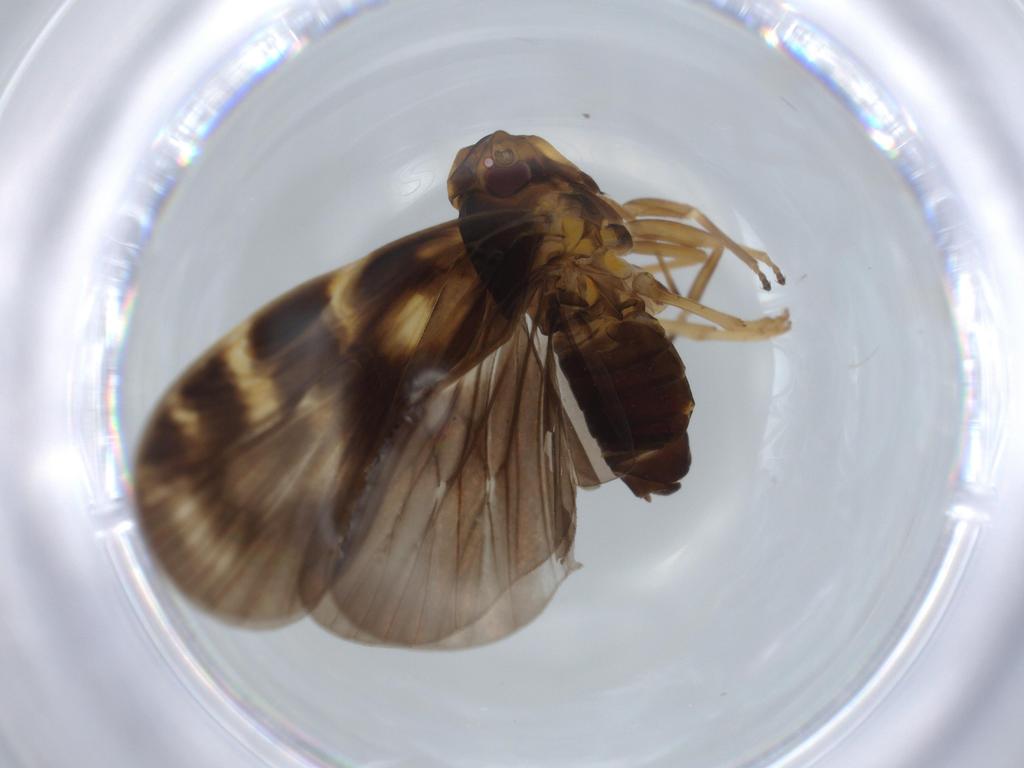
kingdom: Animalia
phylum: Arthropoda
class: Insecta
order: Hemiptera
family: Cixiidae
